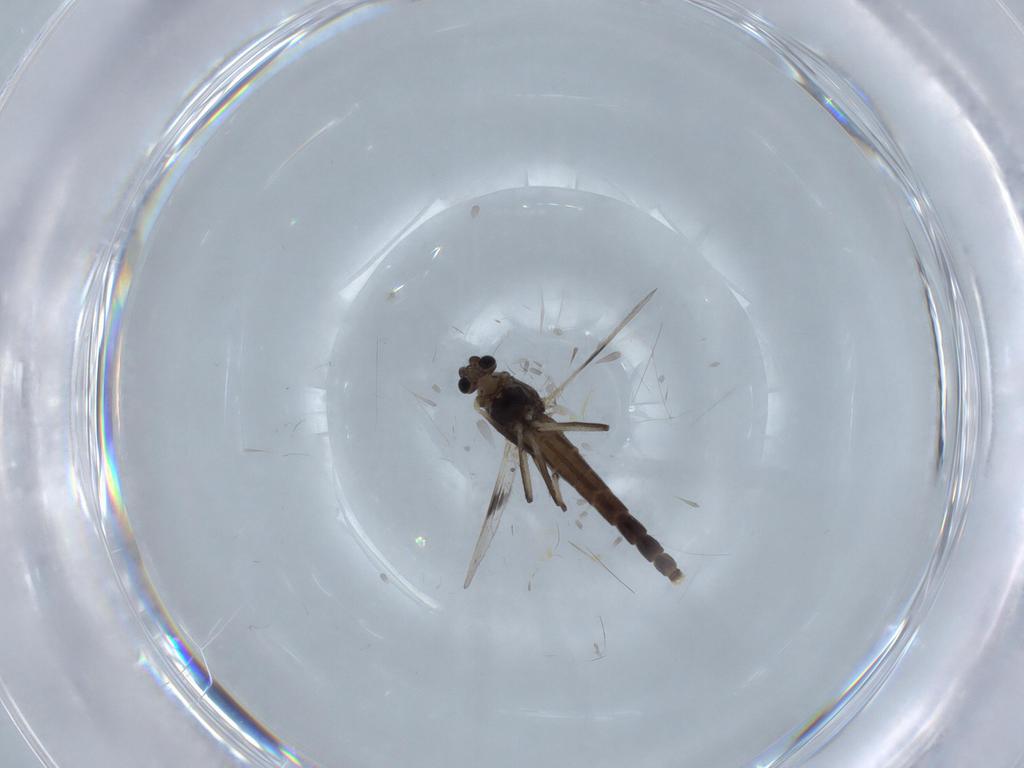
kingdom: Animalia
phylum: Arthropoda
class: Insecta
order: Diptera
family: Chironomidae
